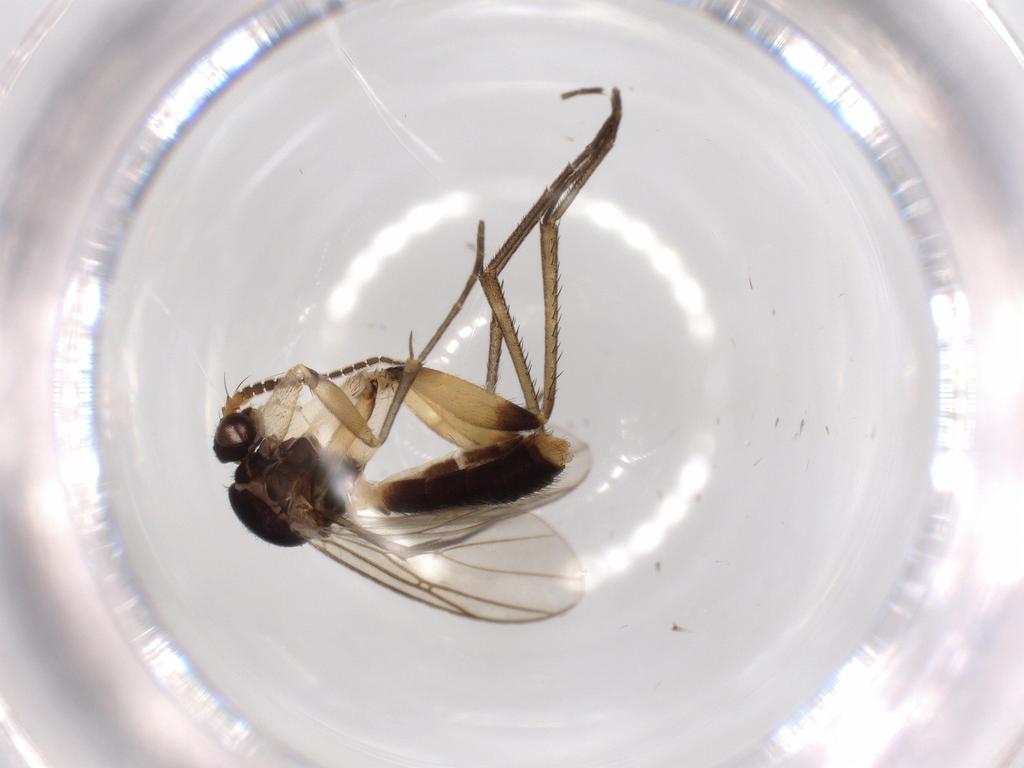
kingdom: Animalia
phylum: Arthropoda
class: Insecta
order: Diptera
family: Mycetophilidae
